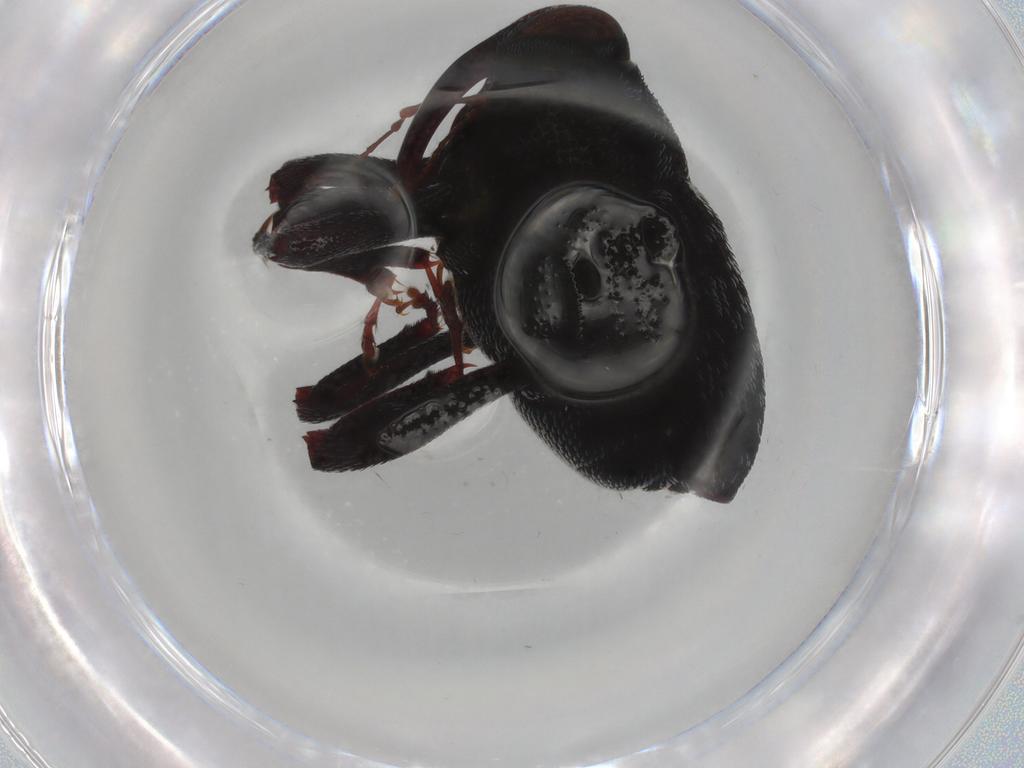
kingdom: Animalia
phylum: Arthropoda
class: Insecta
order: Coleoptera
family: Curculionidae
